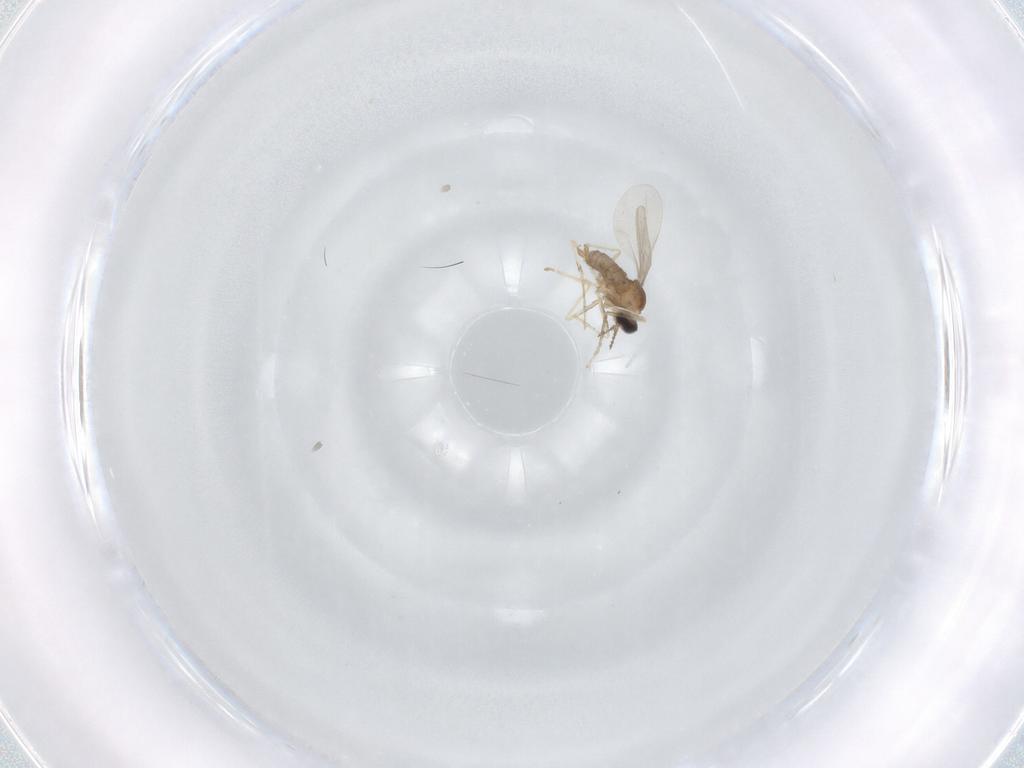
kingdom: Animalia
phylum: Arthropoda
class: Insecta
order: Diptera
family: Cecidomyiidae
